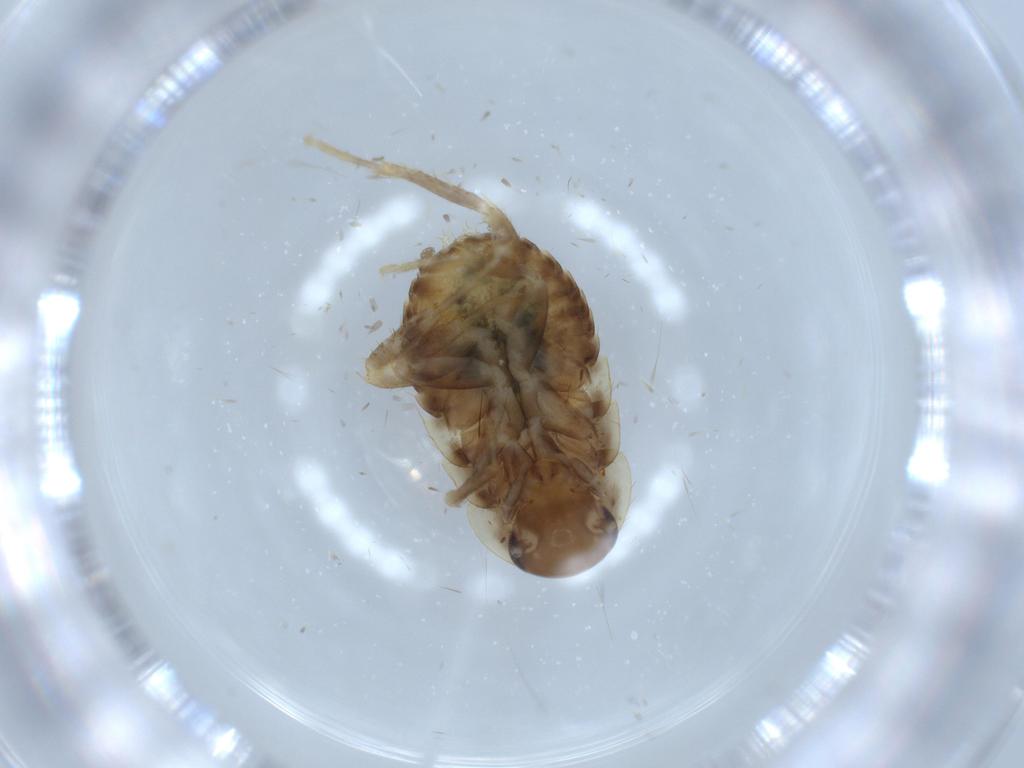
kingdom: Animalia
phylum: Arthropoda
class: Insecta
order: Blattodea
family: Ectobiidae
